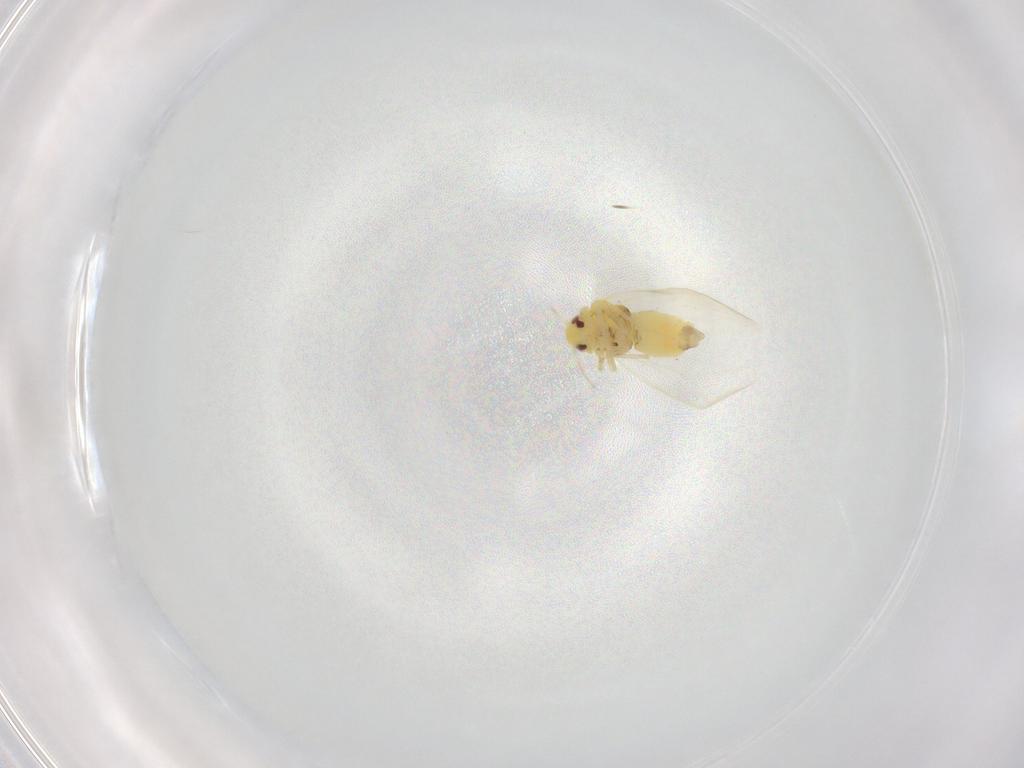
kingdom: Animalia
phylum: Arthropoda
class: Insecta
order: Hemiptera
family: Aleyrodidae
